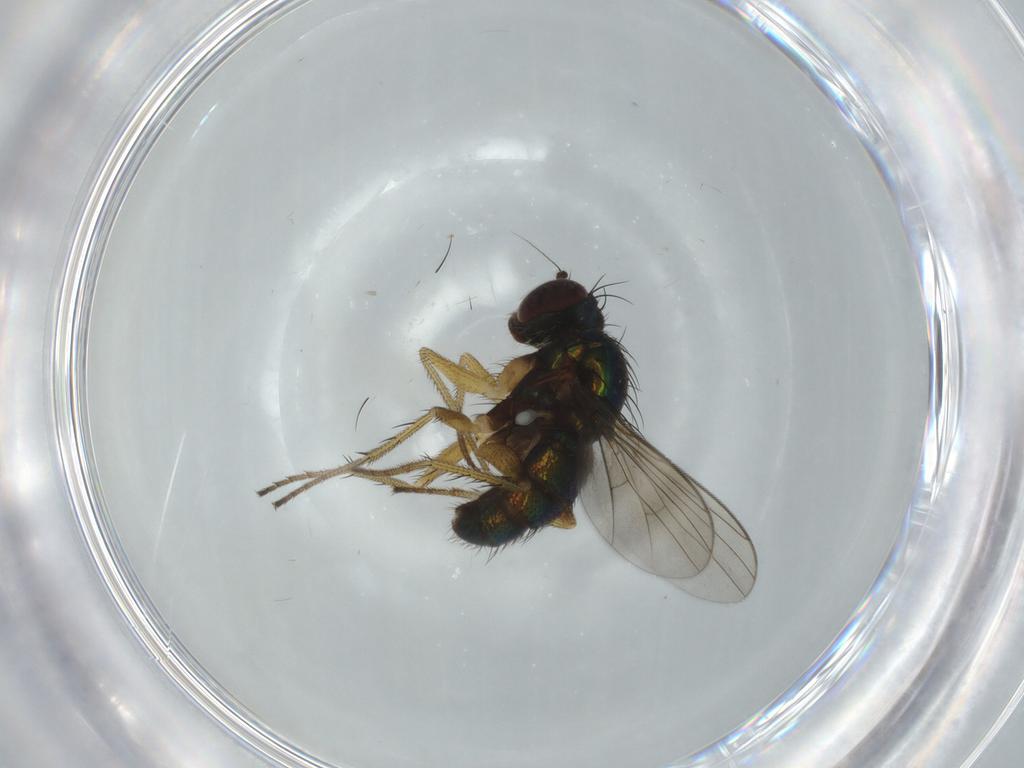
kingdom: Animalia
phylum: Arthropoda
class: Insecta
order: Diptera
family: Dolichopodidae
